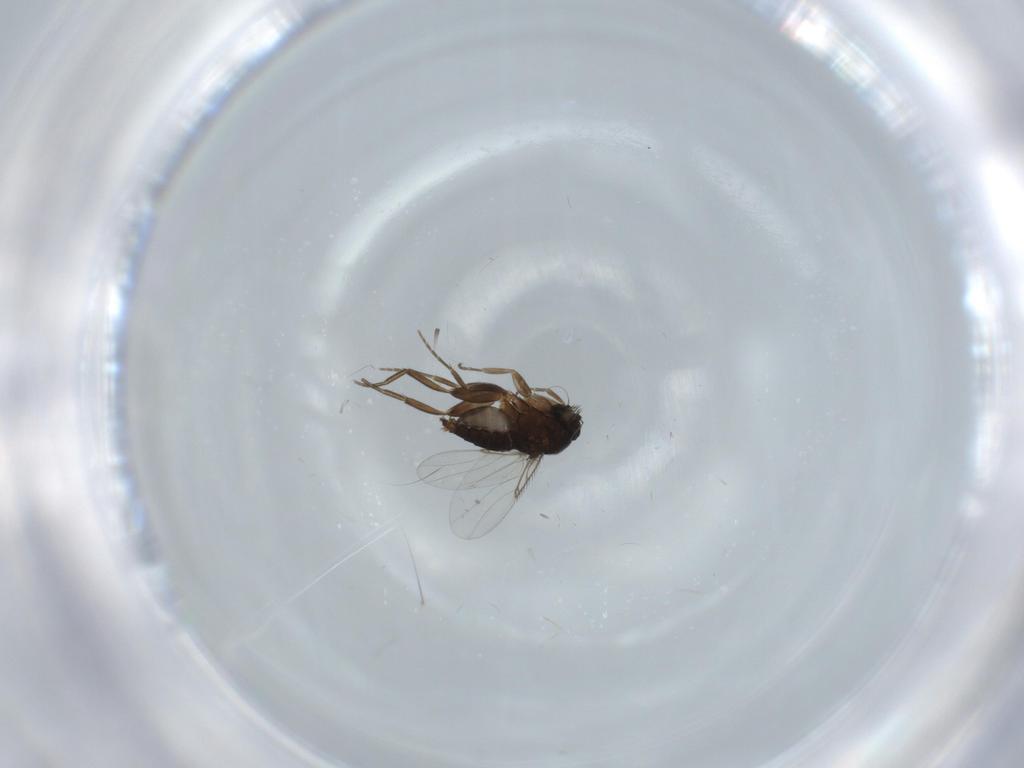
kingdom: Animalia
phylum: Arthropoda
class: Insecta
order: Diptera
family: Phoridae
